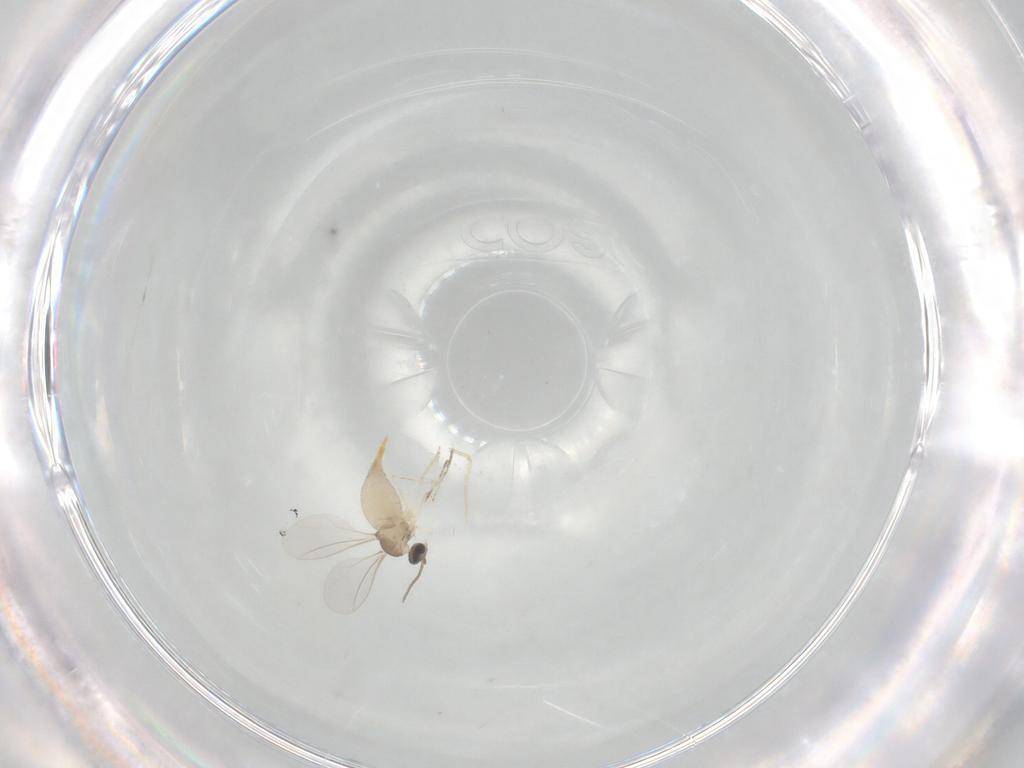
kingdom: Animalia
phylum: Arthropoda
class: Insecta
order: Diptera
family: Cecidomyiidae
